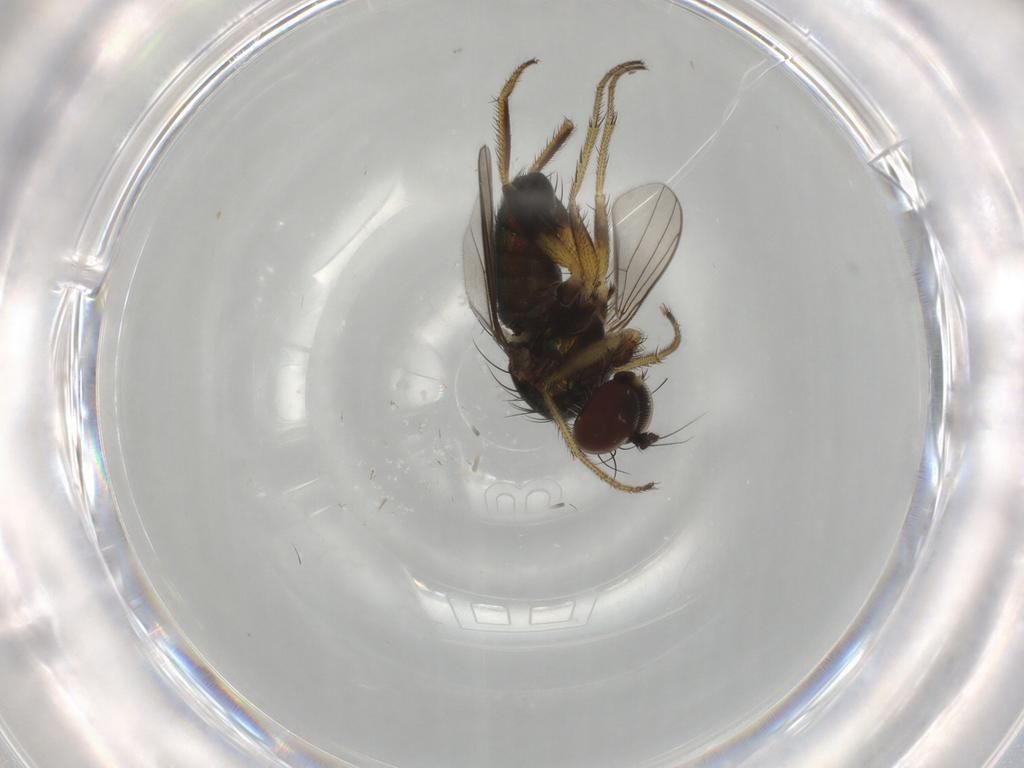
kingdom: Animalia
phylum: Arthropoda
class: Insecta
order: Diptera
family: Dolichopodidae
